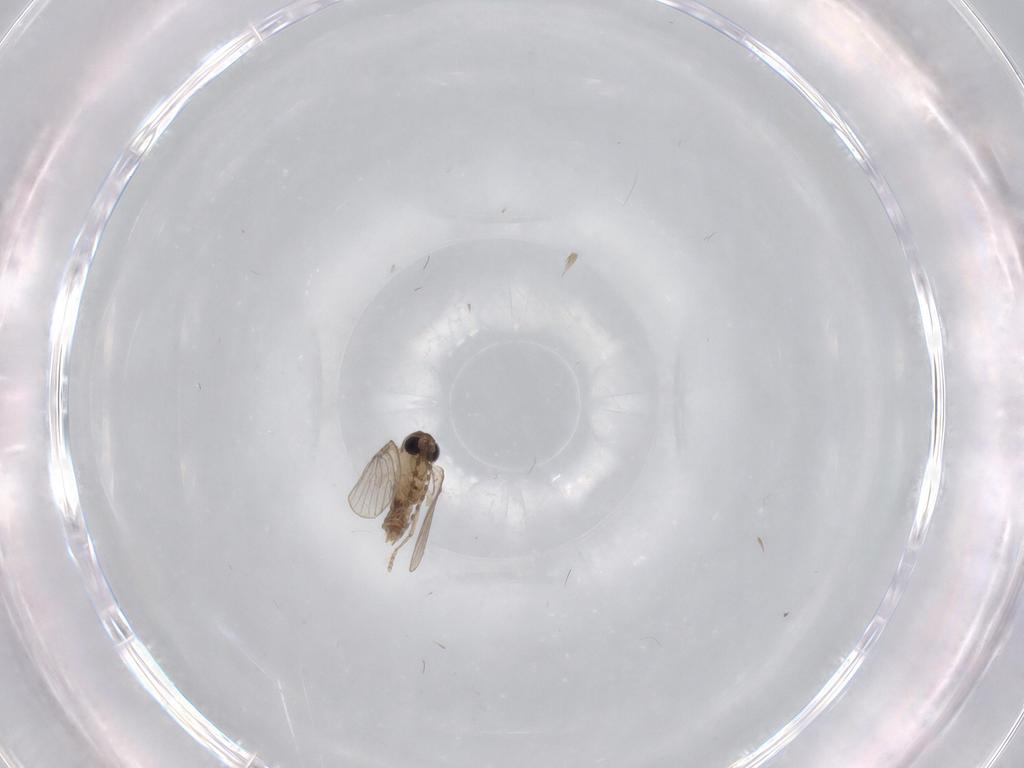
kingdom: Animalia
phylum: Arthropoda
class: Insecta
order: Diptera
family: Psychodidae
